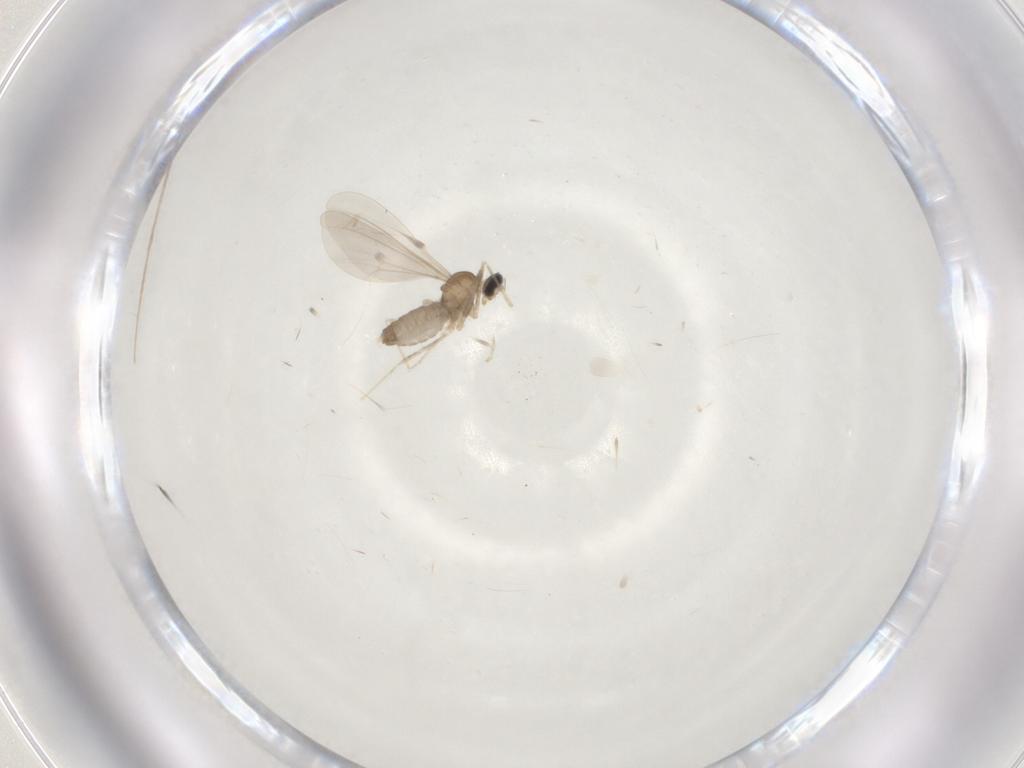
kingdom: Animalia
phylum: Arthropoda
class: Insecta
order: Diptera
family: Cecidomyiidae
